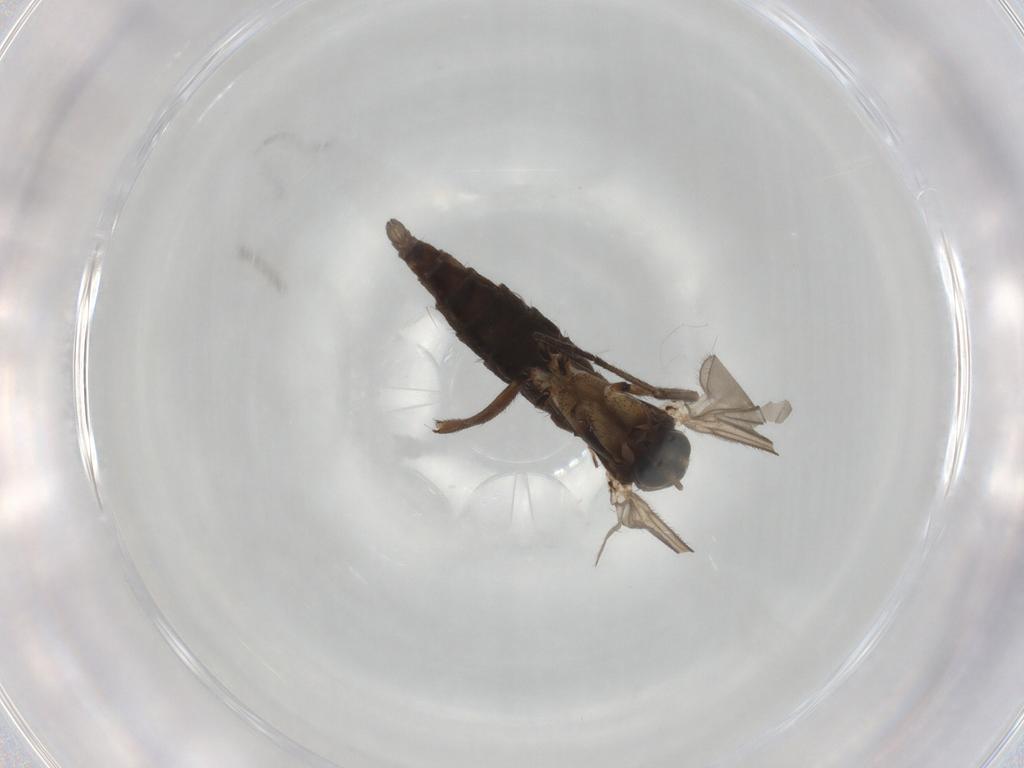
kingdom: Animalia
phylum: Arthropoda
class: Insecta
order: Diptera
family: Sciaridae
